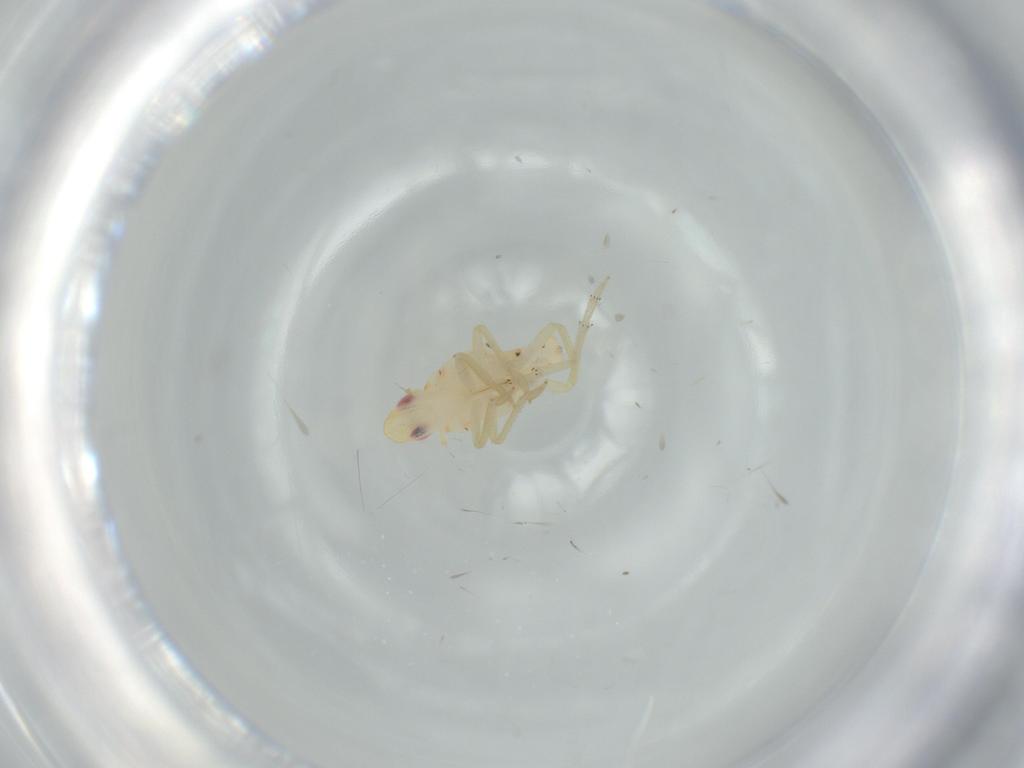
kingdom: Animalia
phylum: Arthropoda
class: Insecta
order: Hemiptera
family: Tropiduchidae
